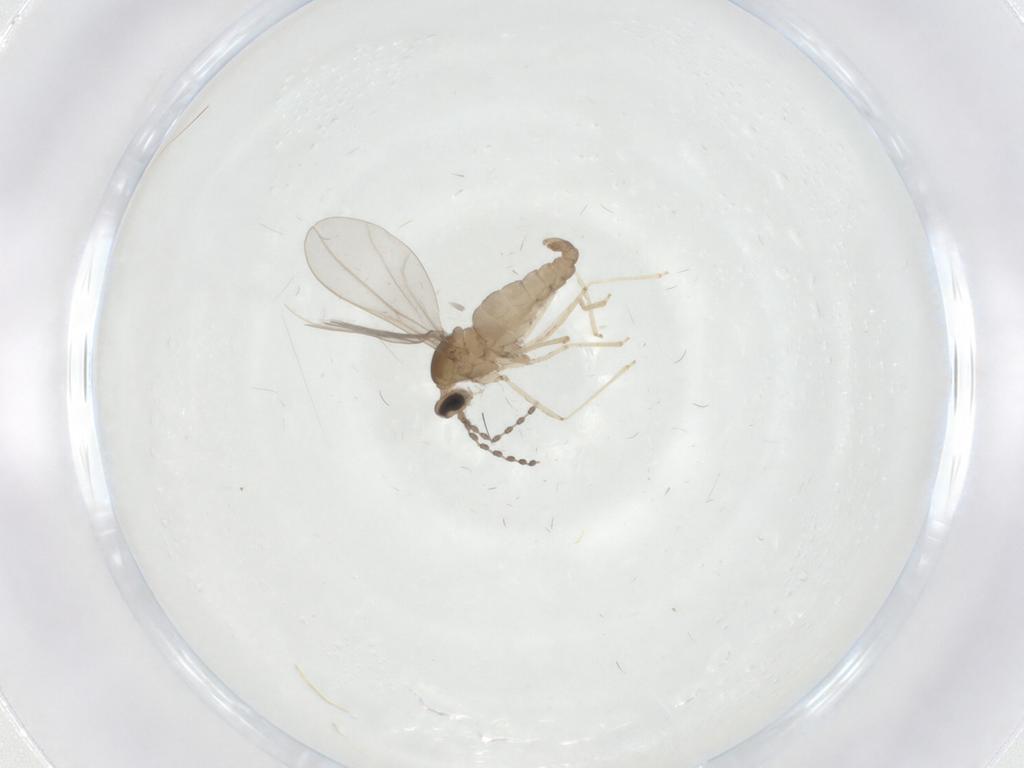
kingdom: Animalia
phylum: Arthropoda
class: Insecta
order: Diptera
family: Cecidomyiidae
